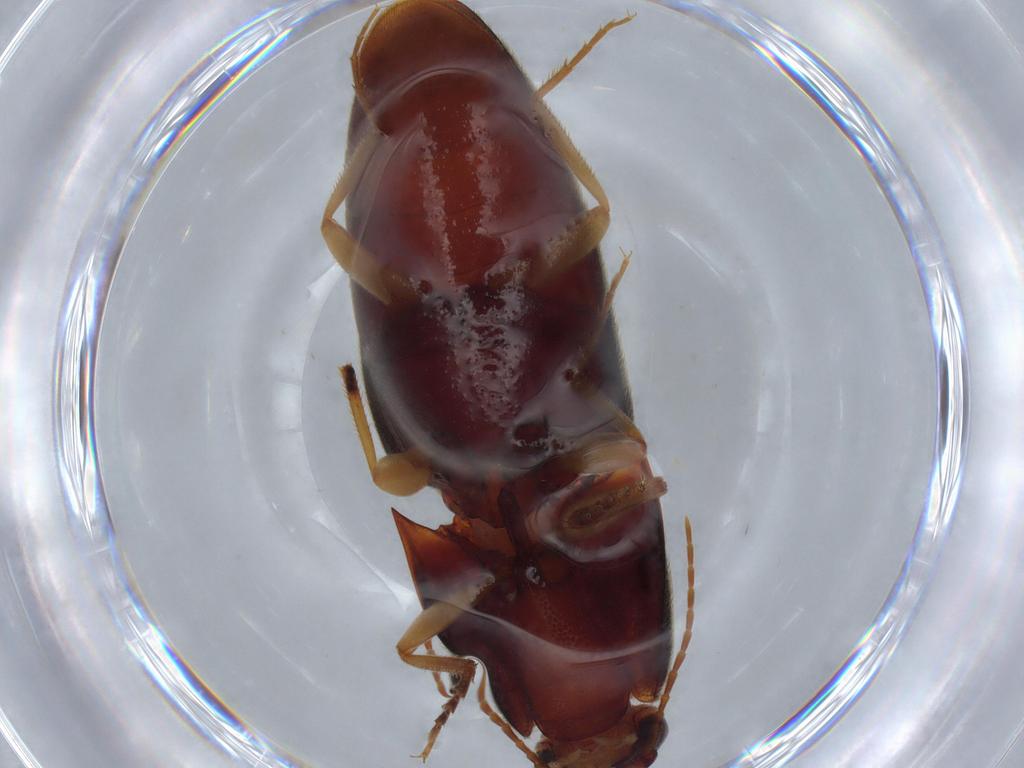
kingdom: Animalia
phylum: Arthropoda
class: Insecta
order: Coleoptera
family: Elateridae
